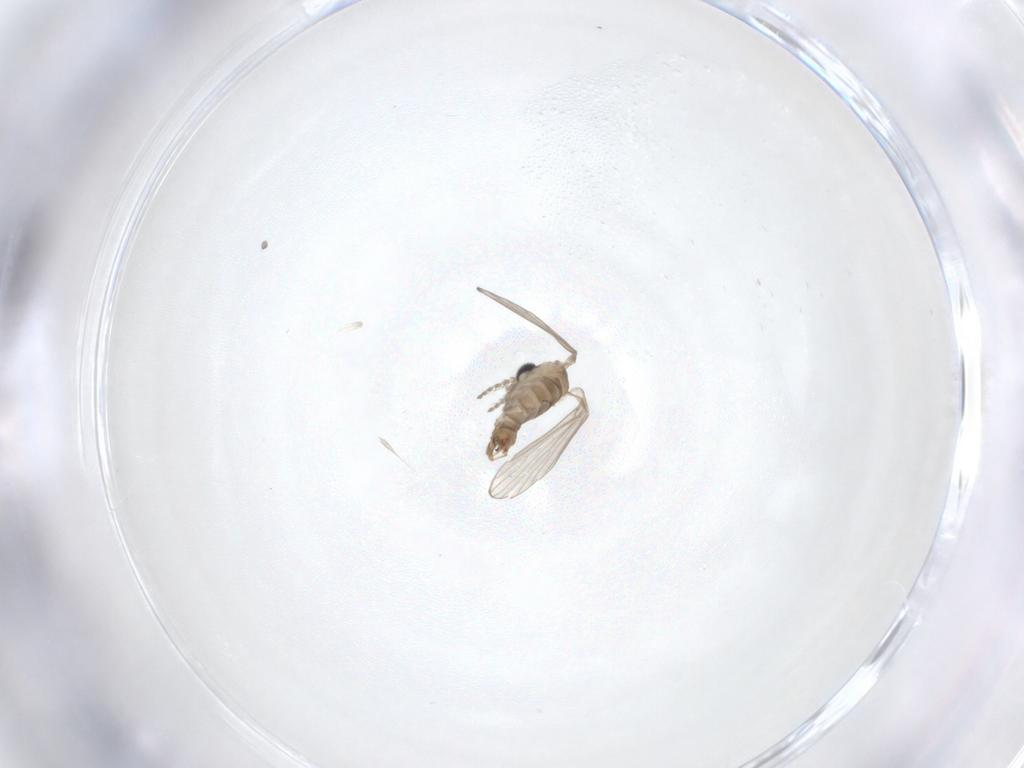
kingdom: Animalia
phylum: Arthropoda
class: Insecta
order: Diptera
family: Psychodidae
